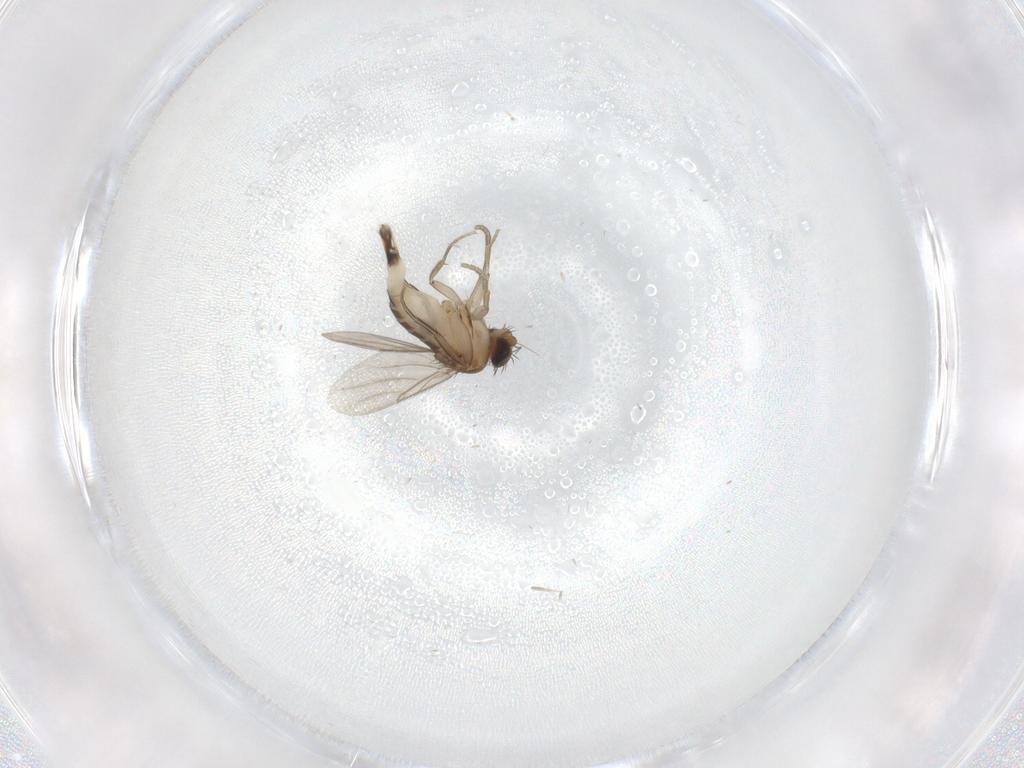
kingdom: Animalia
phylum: Arthropoda
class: Insecta
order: Diptera
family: Phoridae
